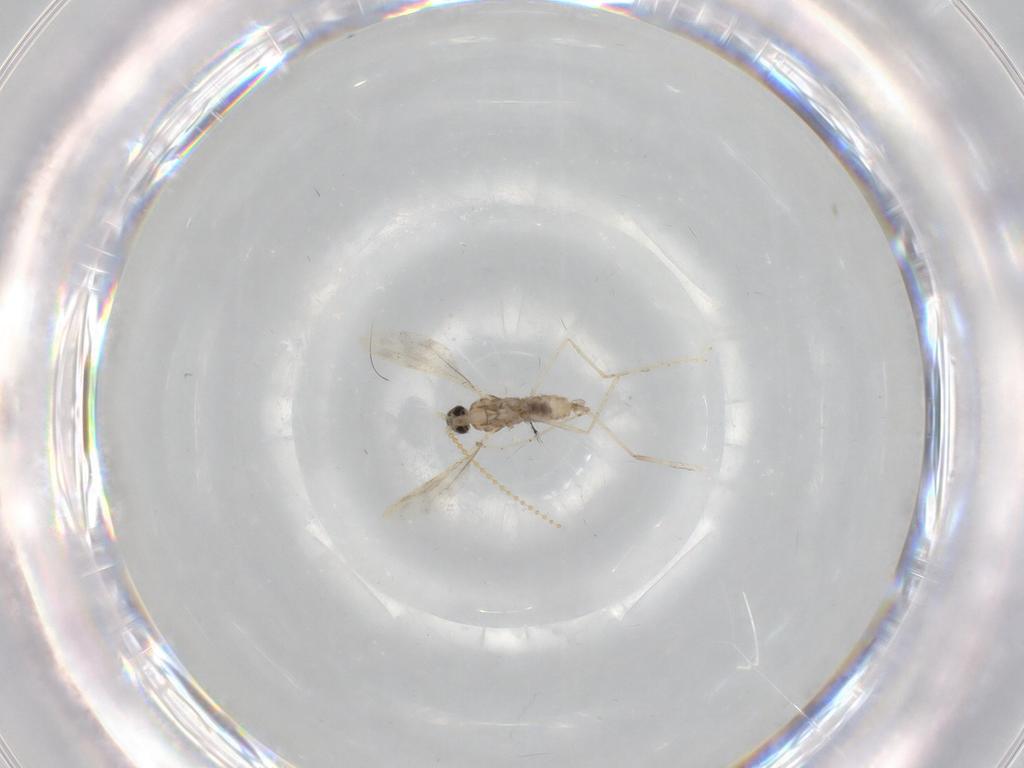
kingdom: Animalia
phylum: Arthropoda
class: Insecta
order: Diptera
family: Cecidomyiidae
